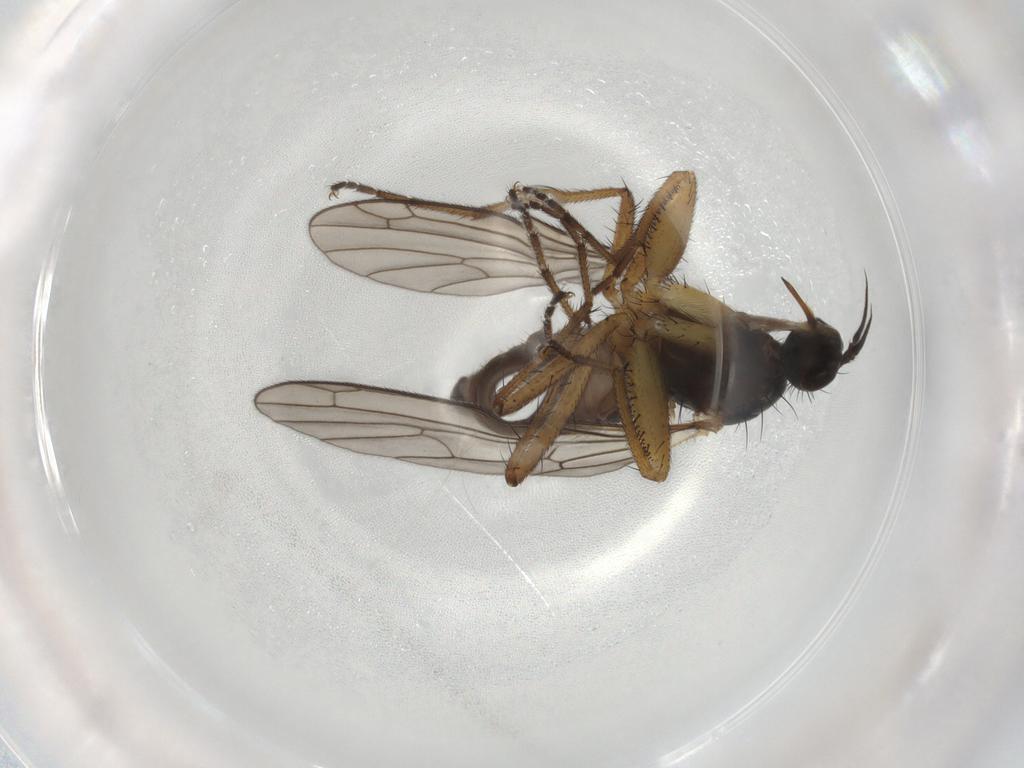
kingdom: Animalia
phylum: Arthropoda
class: Insecta
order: Diptera
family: Empididae
